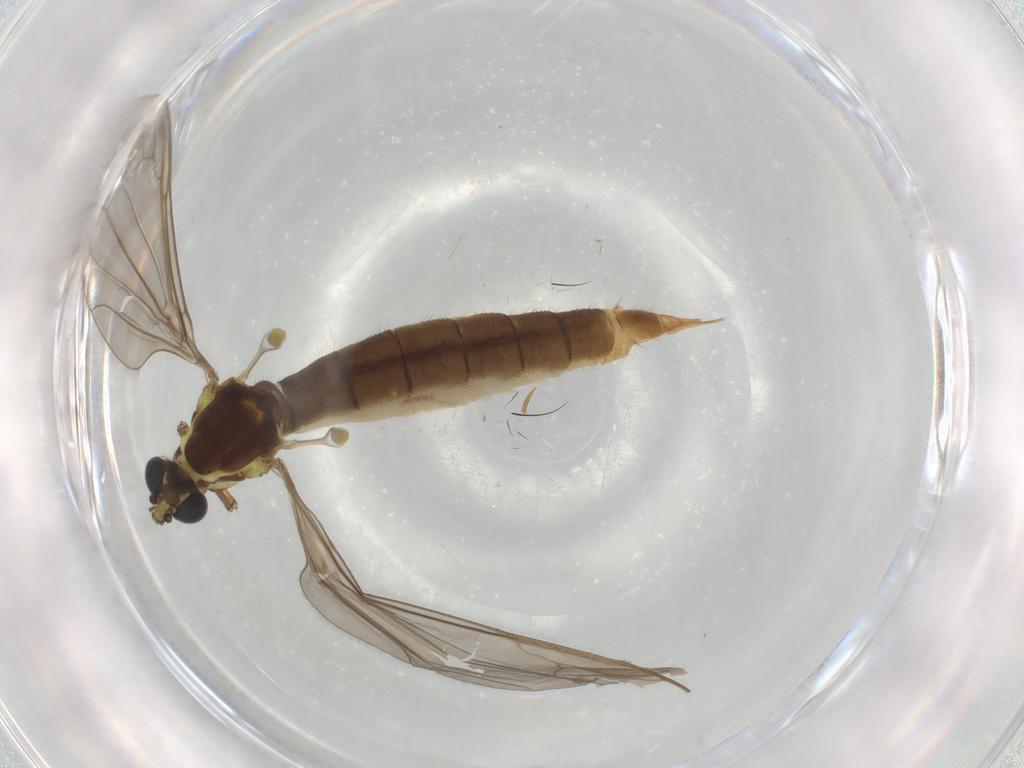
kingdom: Animalia
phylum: Arthropoda
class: Insecta
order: Diptera
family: Limoniidae
